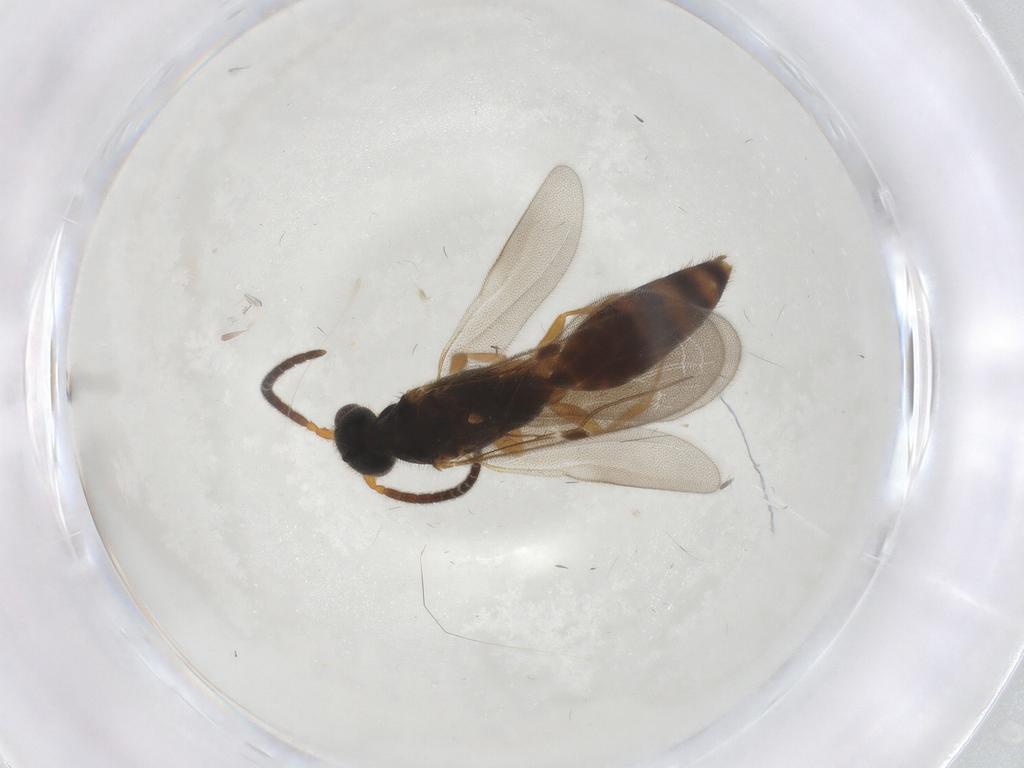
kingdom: Animalia
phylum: Arthropoda
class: Insecta
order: Hymenoptera
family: Bethylidae
